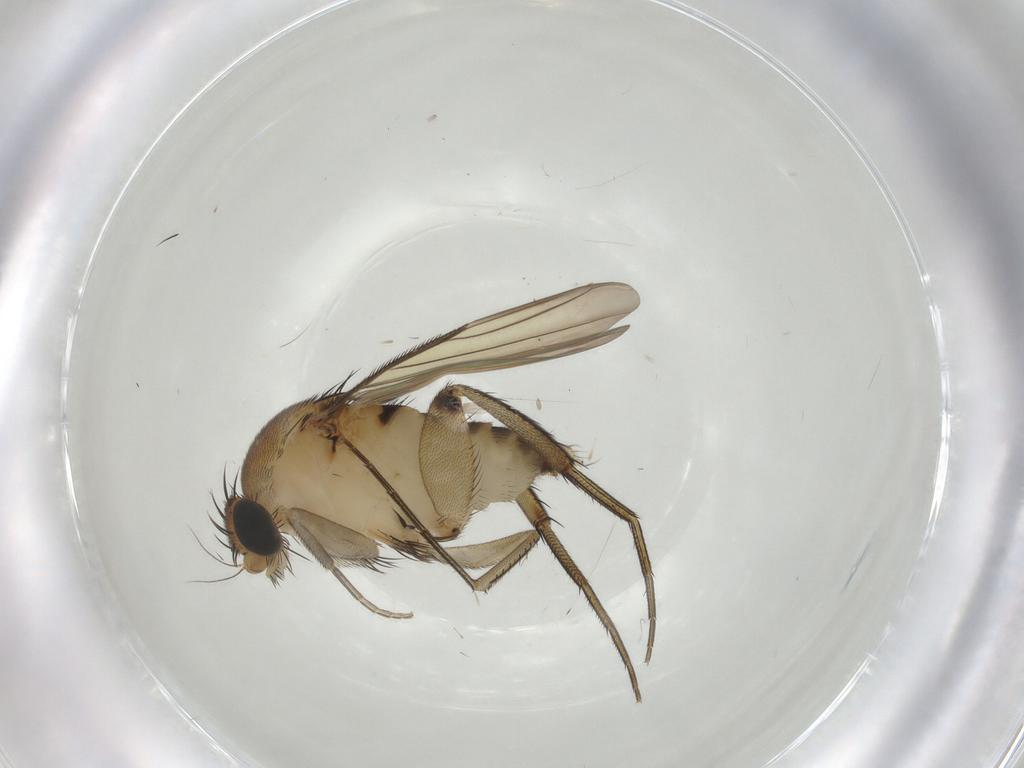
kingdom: Animalia
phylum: Arthropoda
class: Insecta
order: Diptera
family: Phoridae
